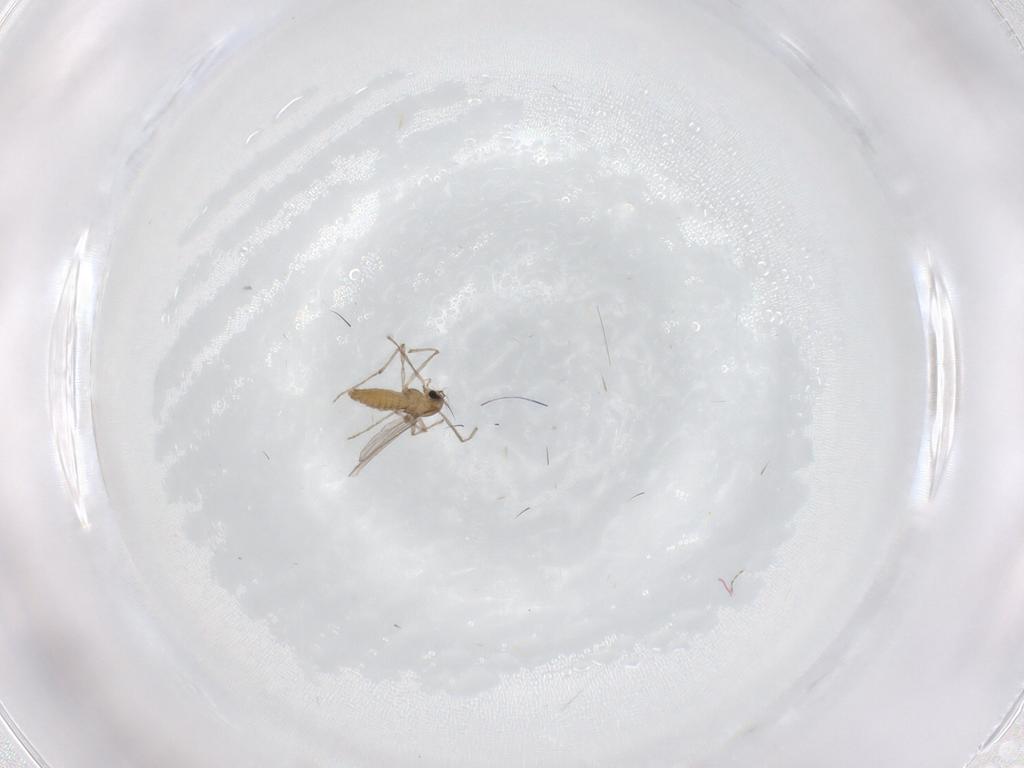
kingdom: Animalia
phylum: Arthropoda
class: Insecta
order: Diptera
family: Chironomidae
